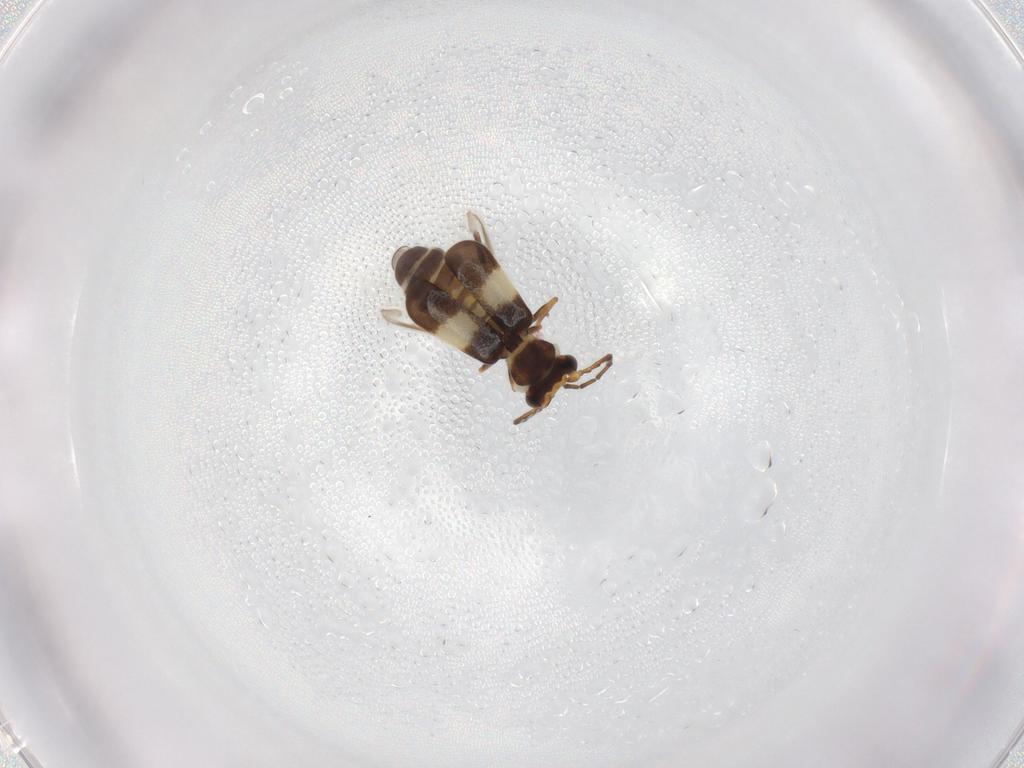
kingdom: Animalia
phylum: Arthropoda
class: Insecta
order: Coleoptera
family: Melyridae
